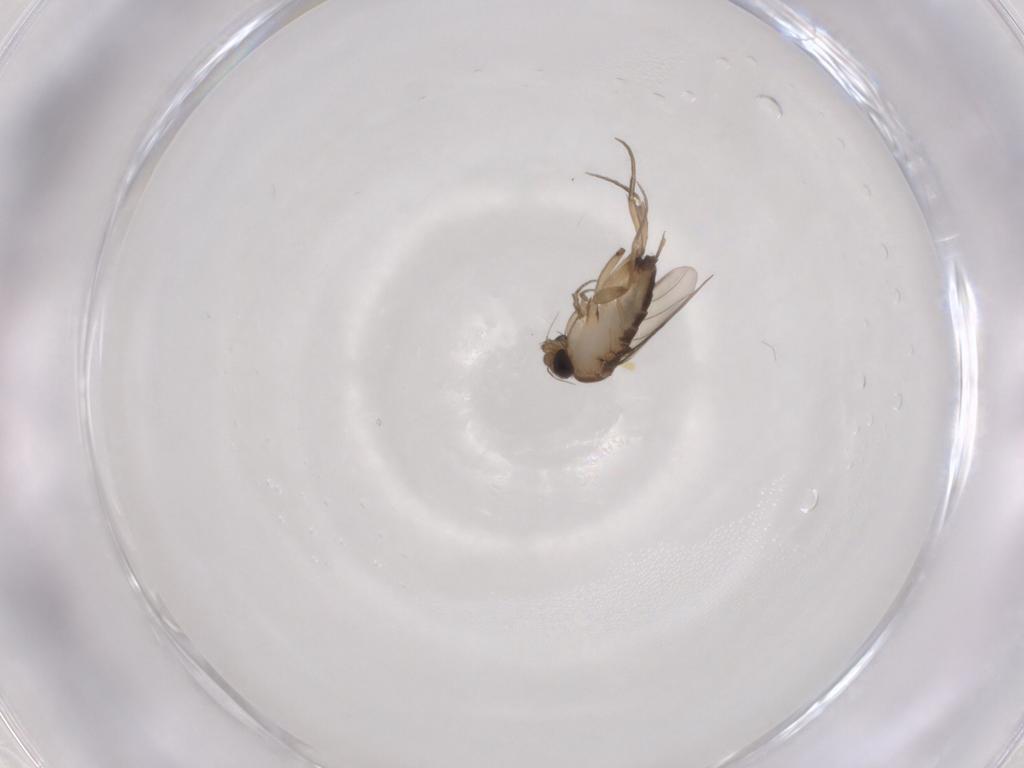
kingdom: Animalia
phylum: Arthropoda
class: Insecta
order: Diptera
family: Phoridae
